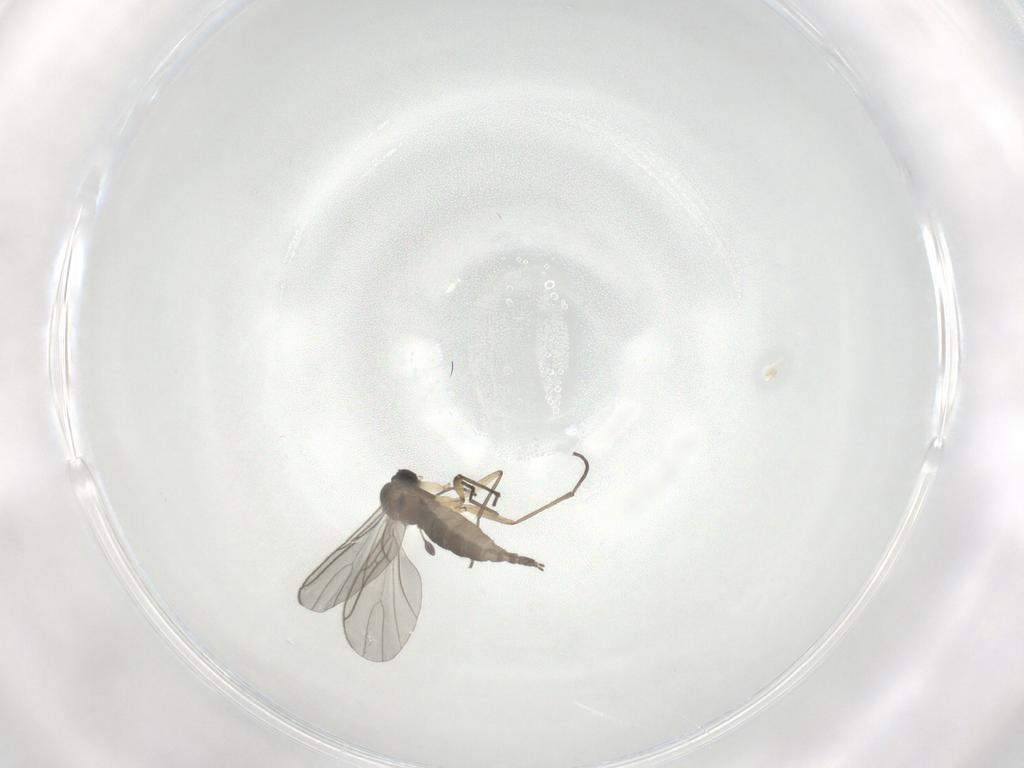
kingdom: Animalia
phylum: Arthropoda
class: Insecta
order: Diptera
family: Sciaridae
